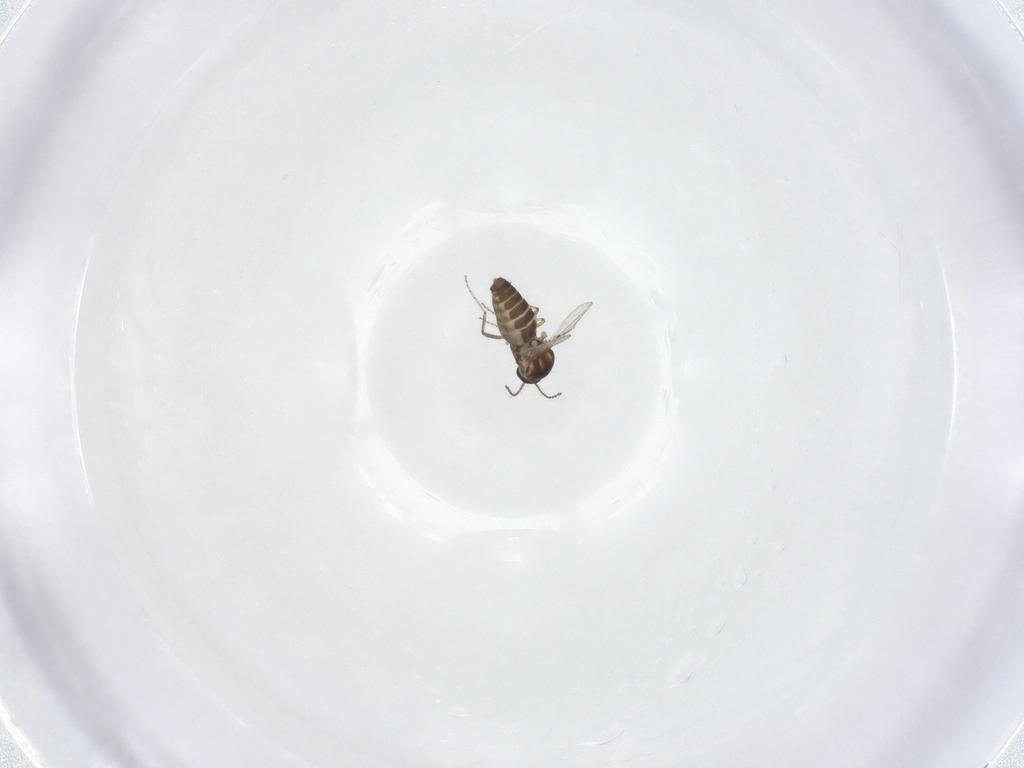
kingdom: Animalia
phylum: Arthropoda
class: Insecta
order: Diptera
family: Ceratopogonidae
